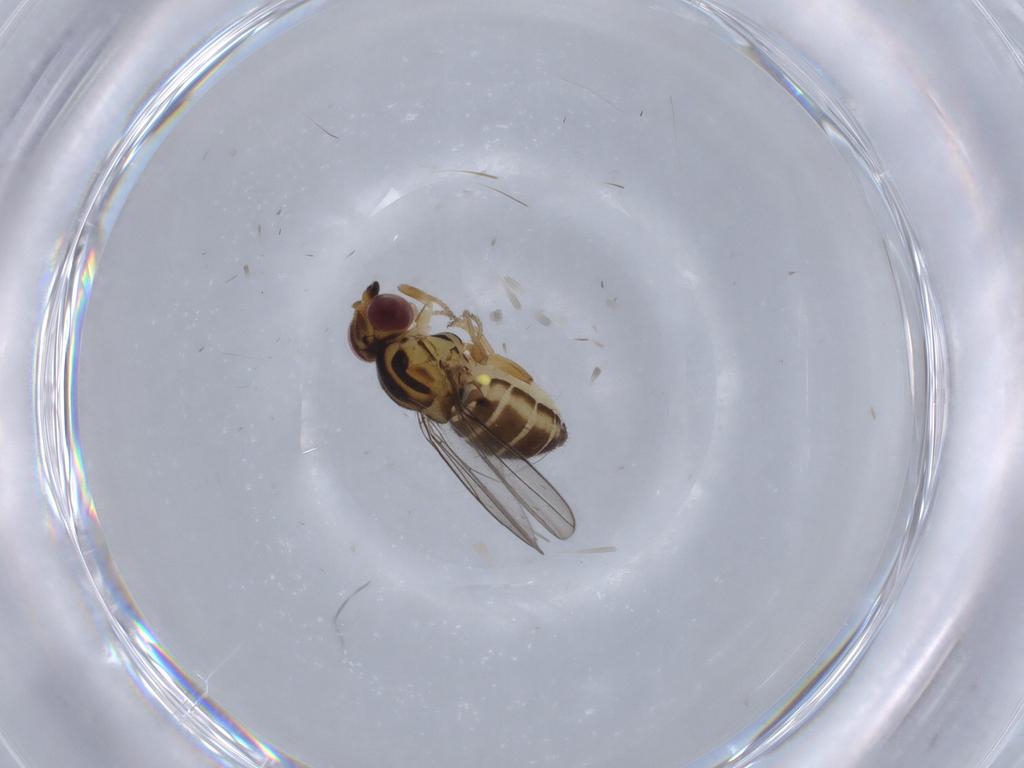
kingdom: Animalia
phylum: Arthropoda
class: Insecta
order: Diptera
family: Chloropidae
